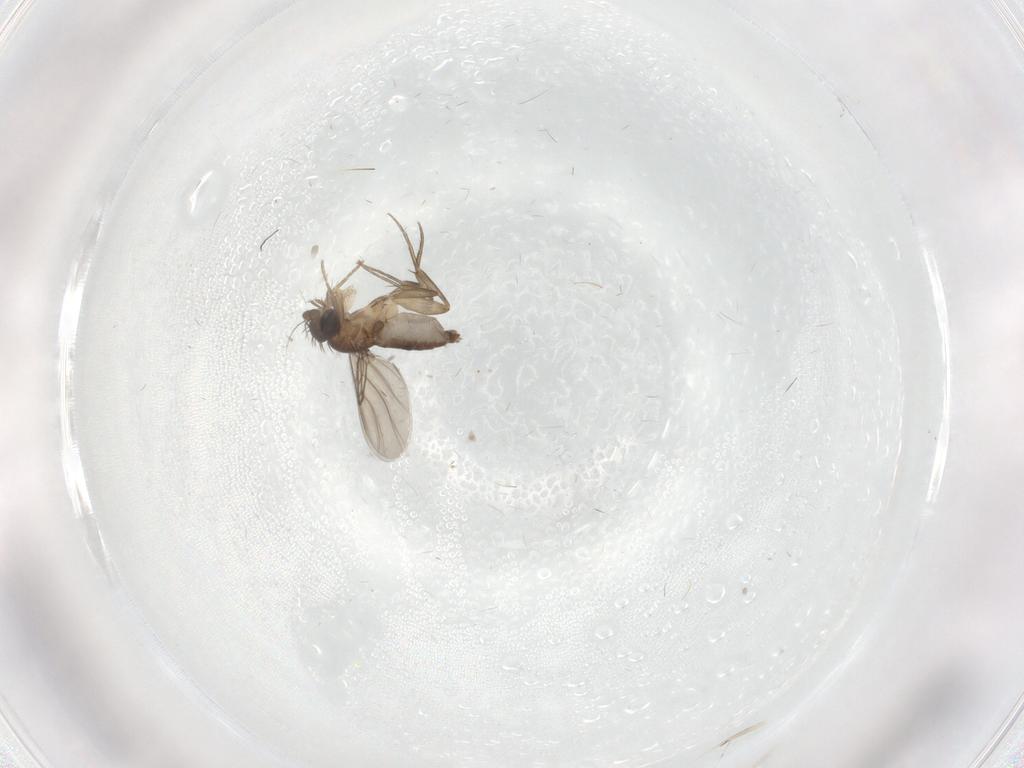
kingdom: Animalia
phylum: Arthropoda
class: Insecta
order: Diptera
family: Phoridae
